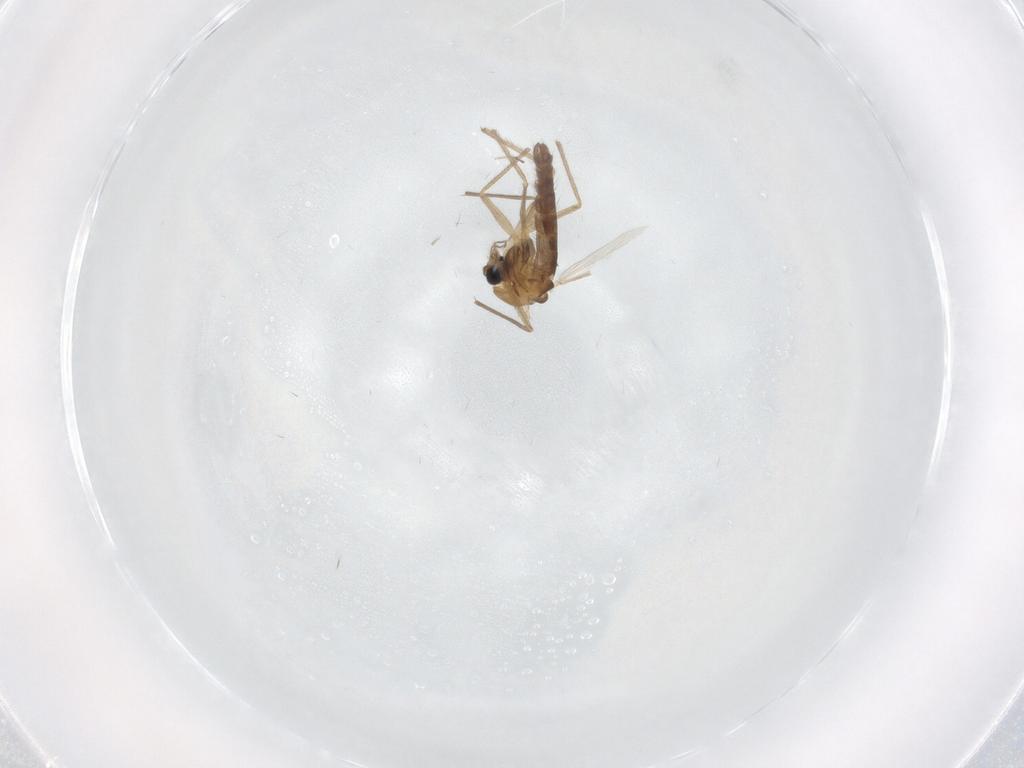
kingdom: Animalia
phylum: Arthropoda
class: Insecta
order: Diptera
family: Chironomidae
